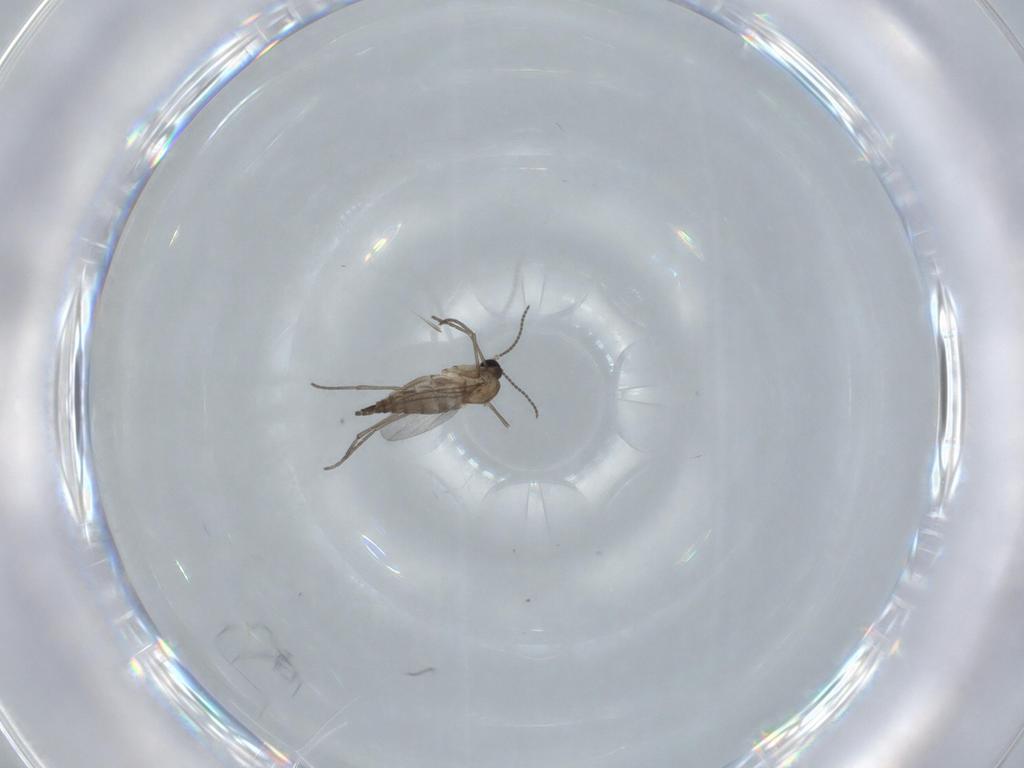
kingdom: Animalia
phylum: Arthropoda
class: Insecta
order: Diptera
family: Sciaridae
